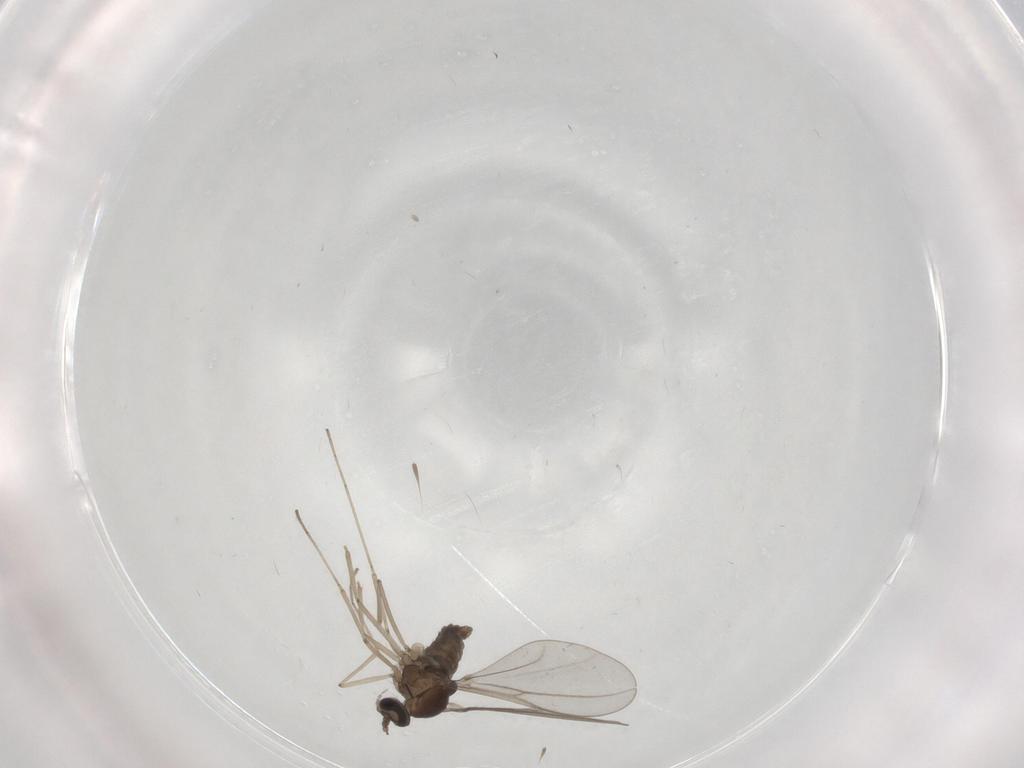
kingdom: Animalia
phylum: Arthropoda
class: Insecta
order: Diptera
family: Cecidomyiidae
